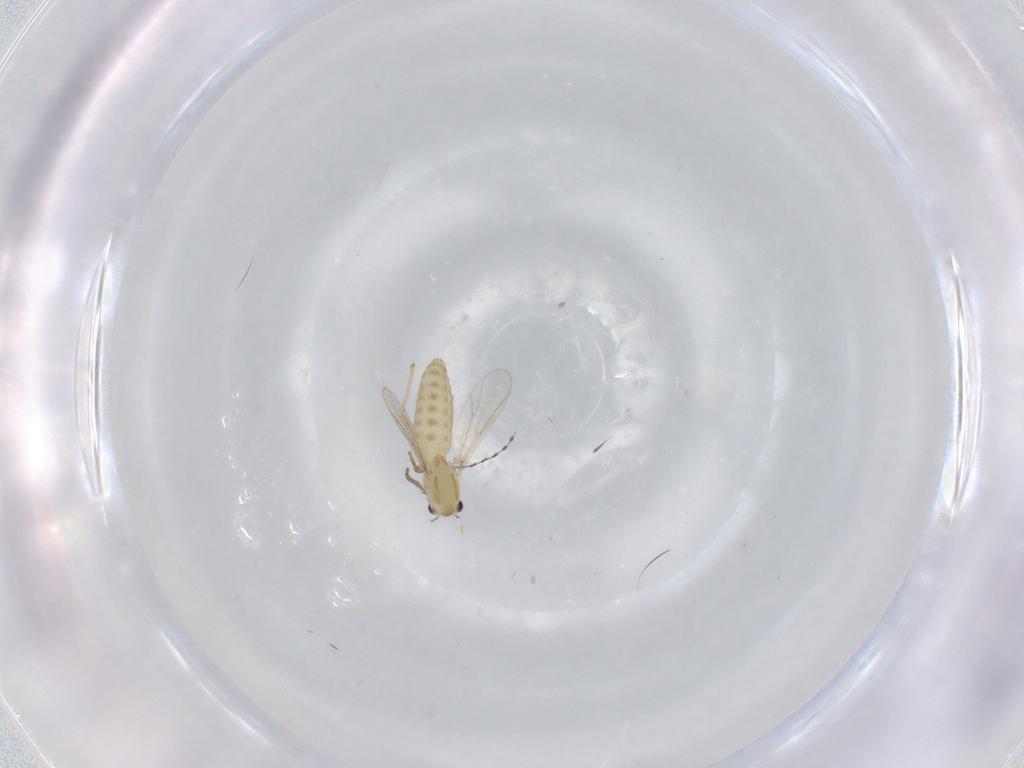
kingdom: Animalia
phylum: Arthropoda
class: Insecta
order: Diptera
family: Chironomidae
